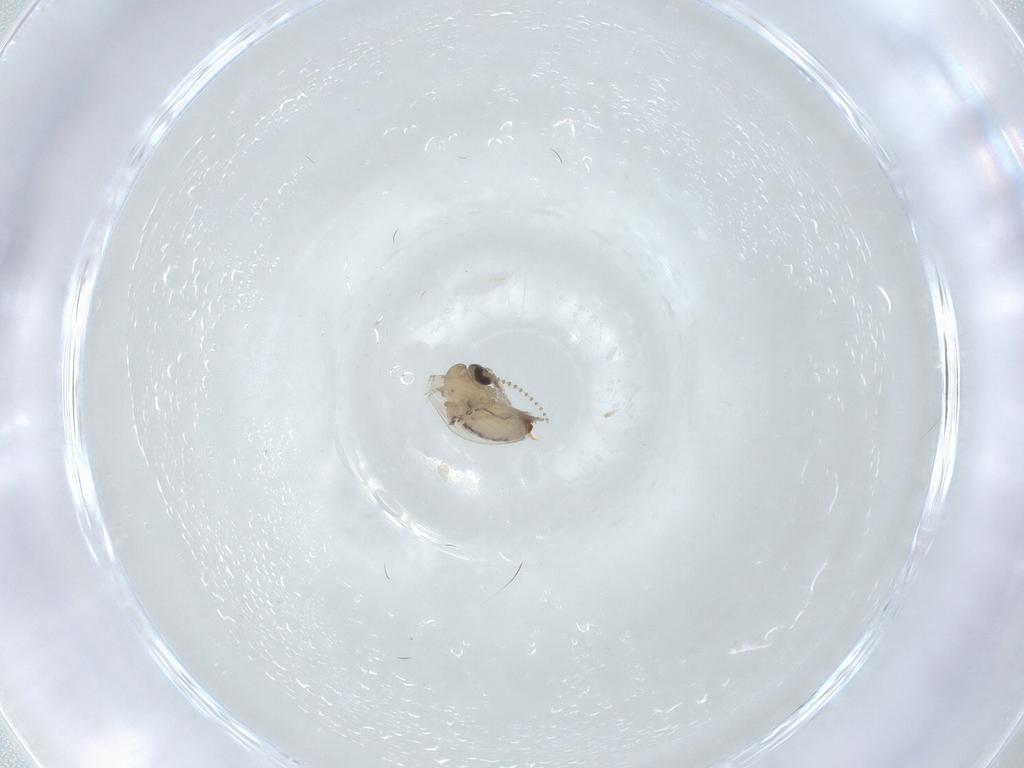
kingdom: Animalia
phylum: Arthropoda
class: Insecta
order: Diptera
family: Psychodidae
